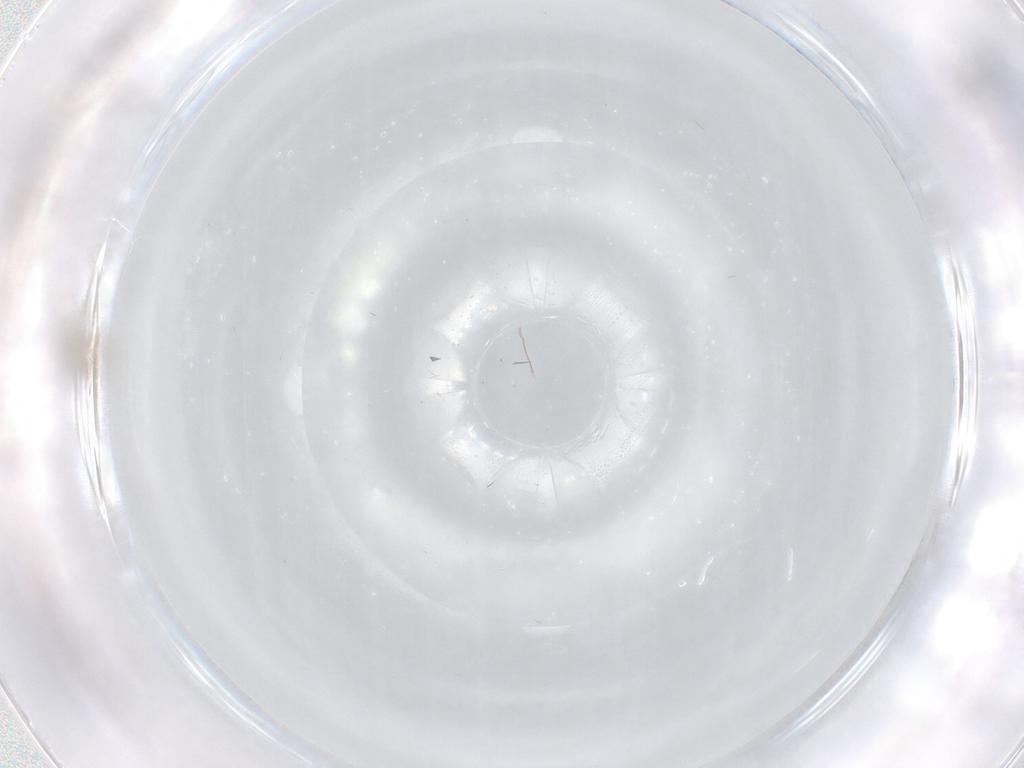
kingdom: Animalia
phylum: Arthropoda
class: Insecta
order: Diptera
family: Cecidomyiidae
